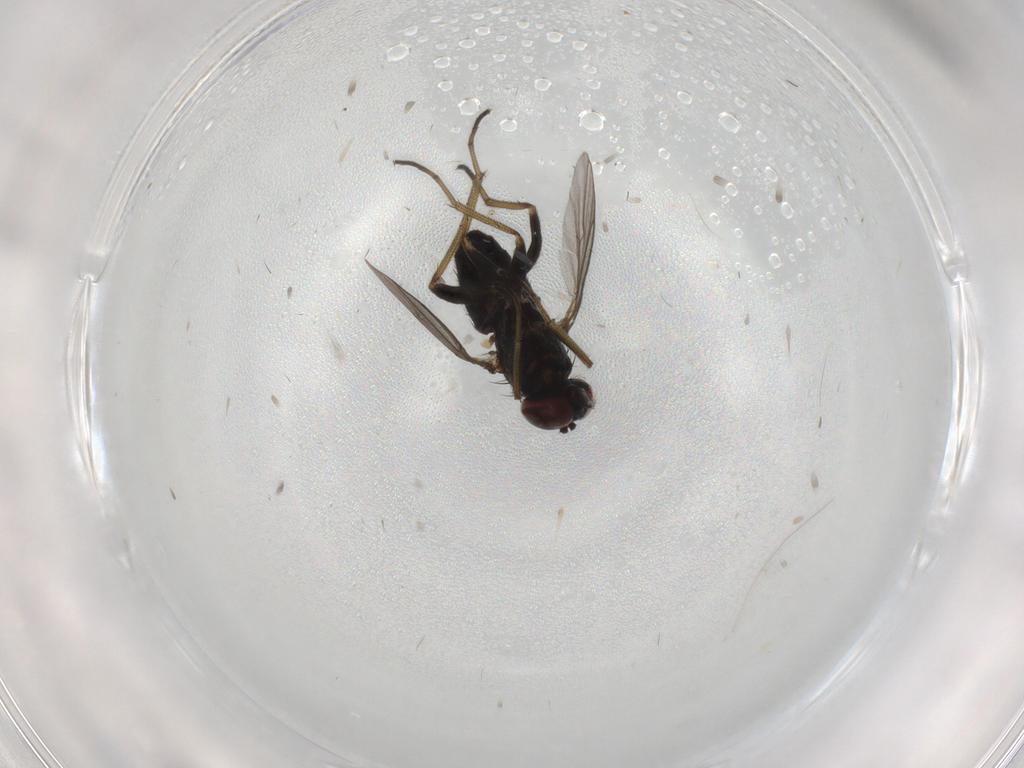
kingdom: Animalia
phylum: Arthropoda
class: Insecta
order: Diptera
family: Dolichopodidae
